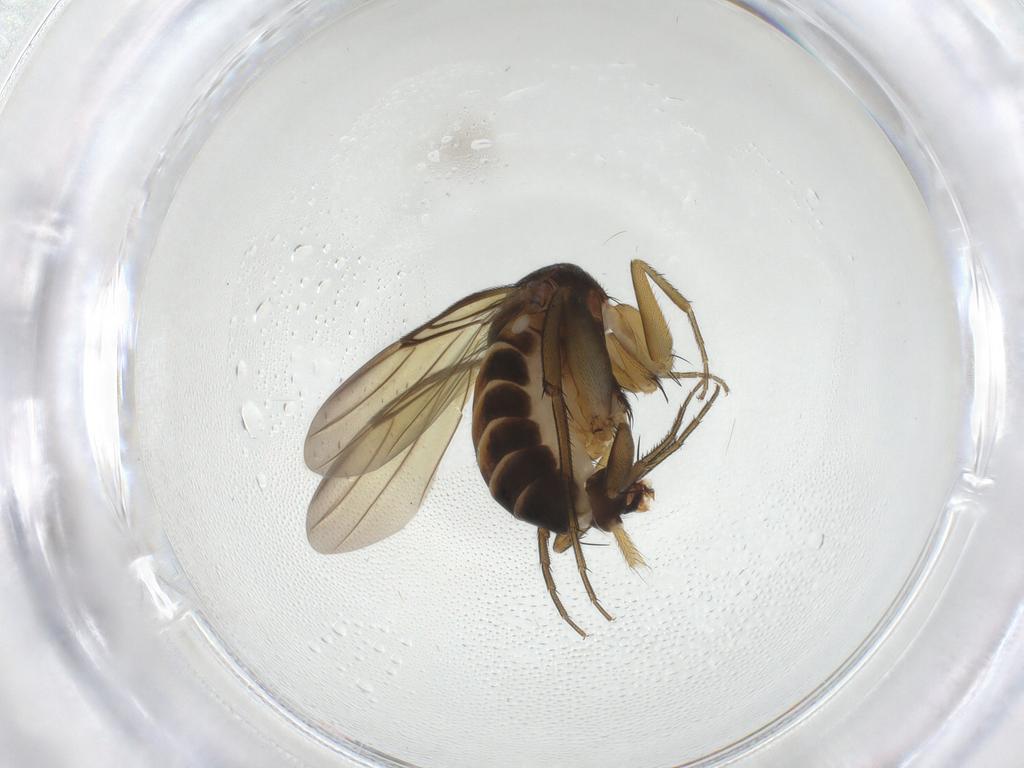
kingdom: Animalia
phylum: Arthropoda
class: Insecta
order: Diptera
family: Phoridae
